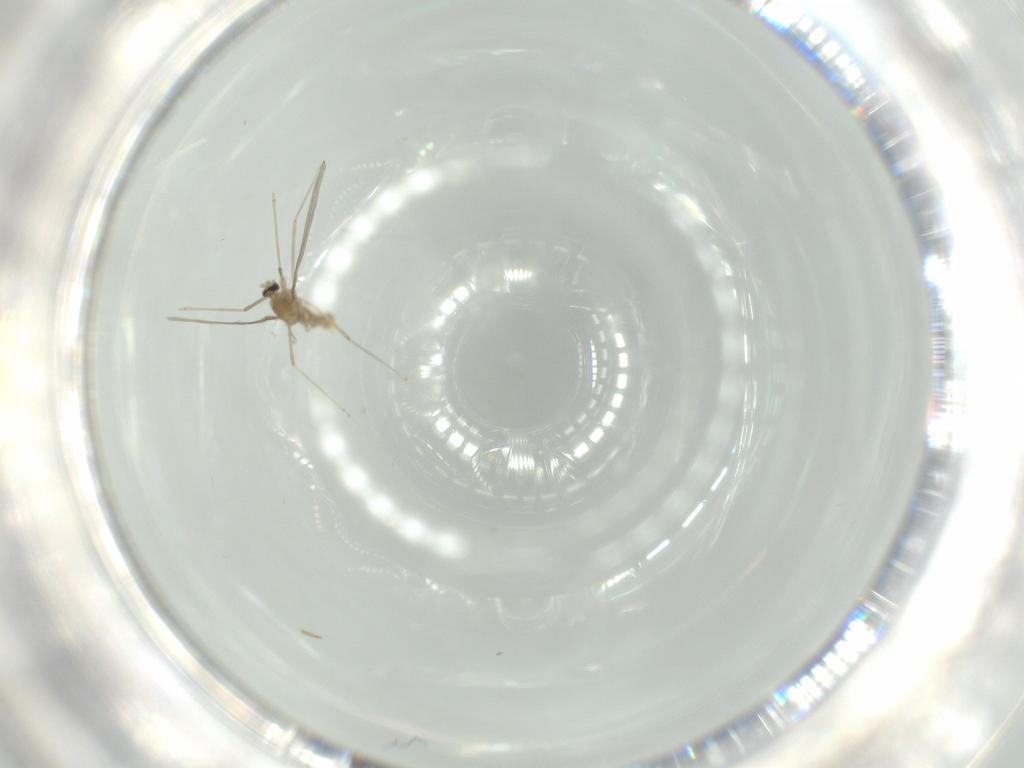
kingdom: Animalia
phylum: Arthropoda
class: Insecta
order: Diptera
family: Cecidomyiidae
